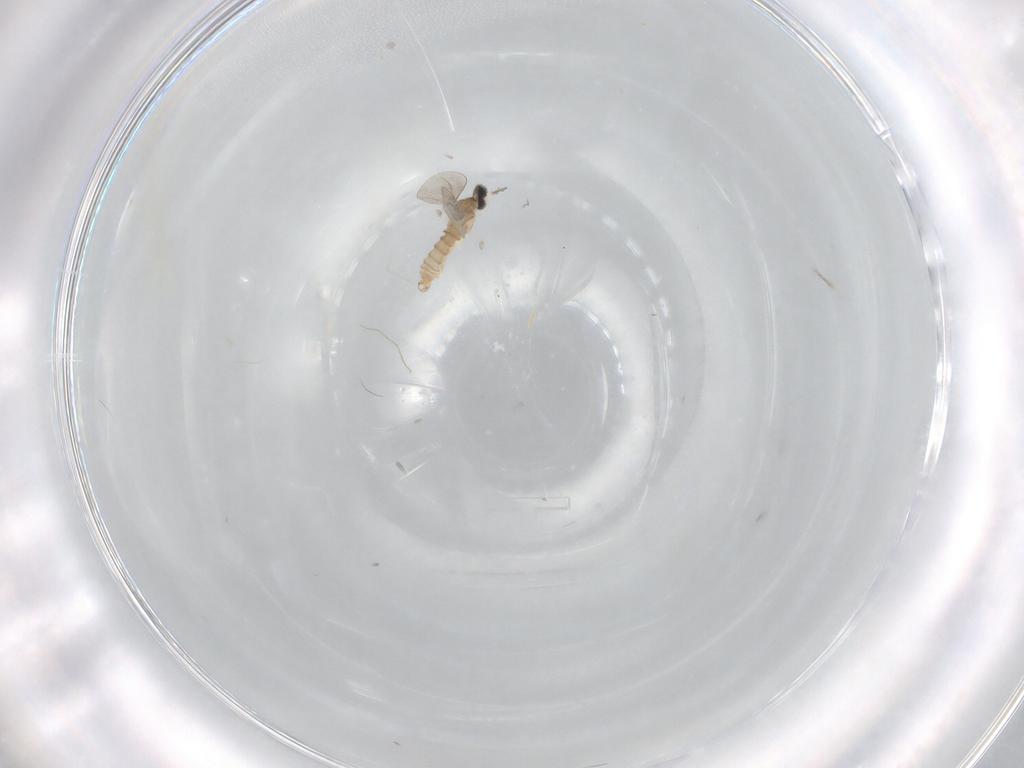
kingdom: Animalia
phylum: Arthropoda
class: Insecta
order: Diptera
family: Cecidomyiidae
